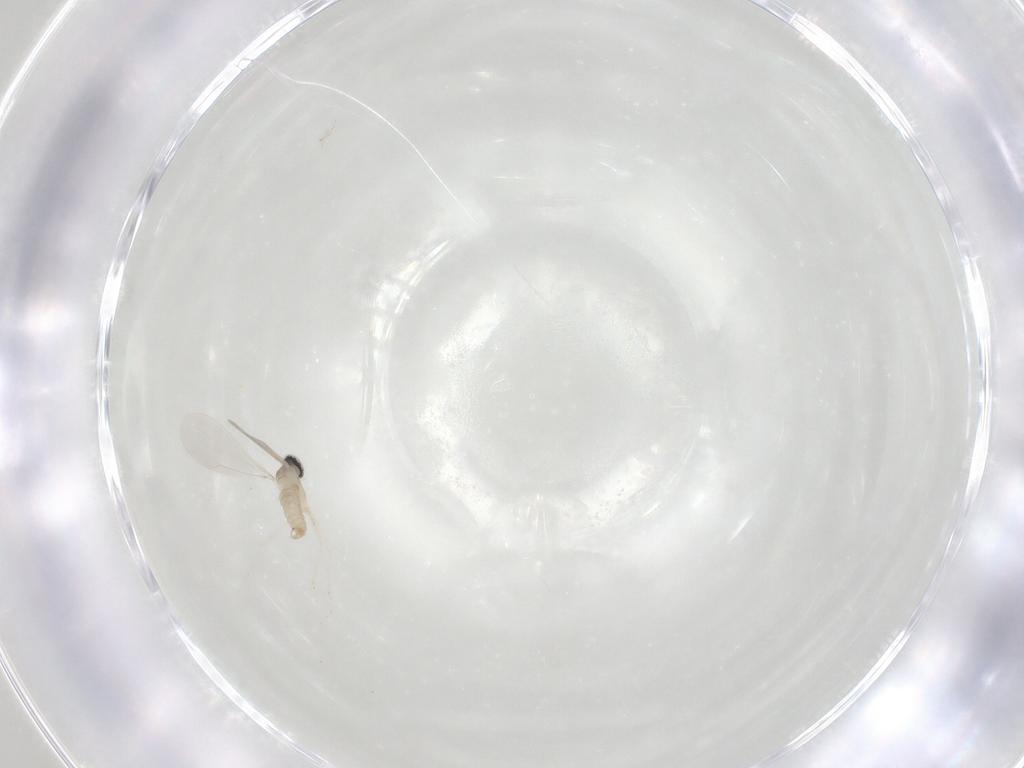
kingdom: Animalia
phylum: Arthropoda
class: Insecta
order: Diptera
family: Cecidomyiidae
